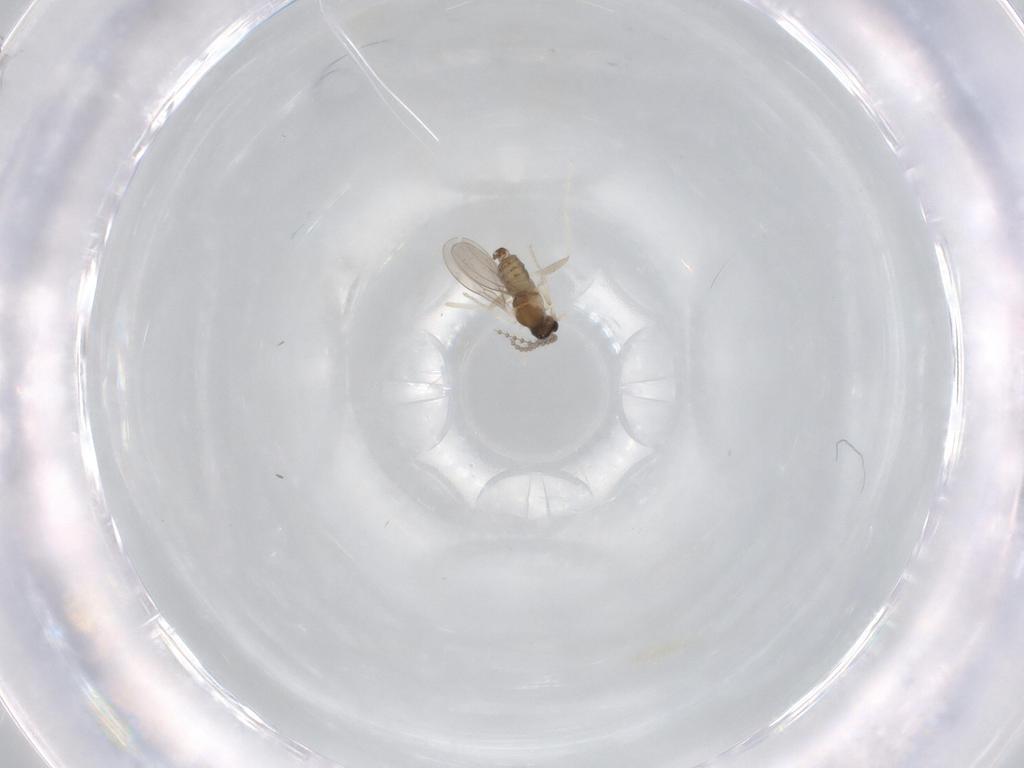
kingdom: Animalia
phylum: Arthropoda
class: Insecta
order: Diptera
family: Cecidomyiidae
